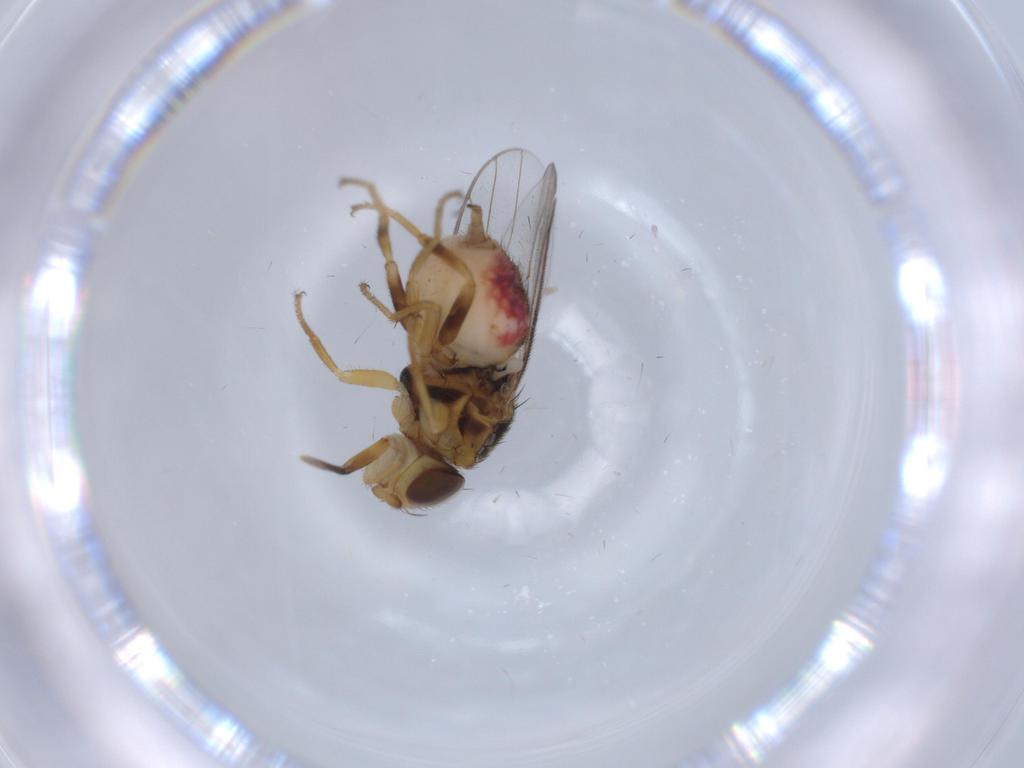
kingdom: Animalia
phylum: Arthropoda
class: Insecta
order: Diptera
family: Chloropidae
